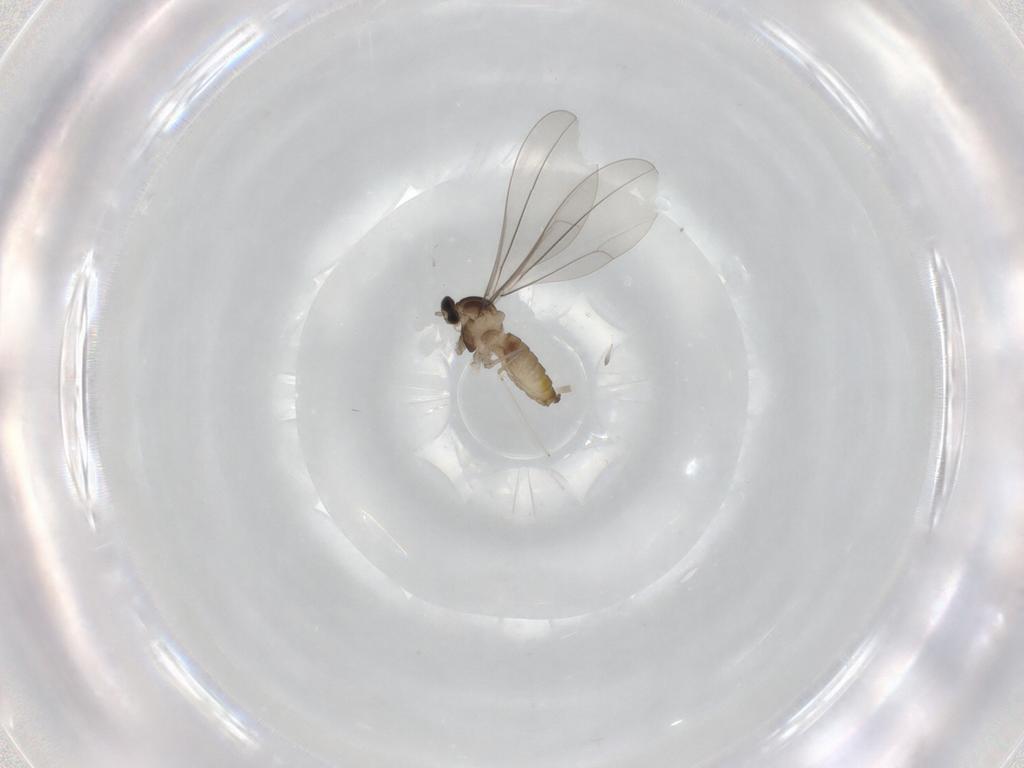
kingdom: Animalia
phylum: Arthropoda
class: Insecta
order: Diptera
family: Cecidomyiidae
